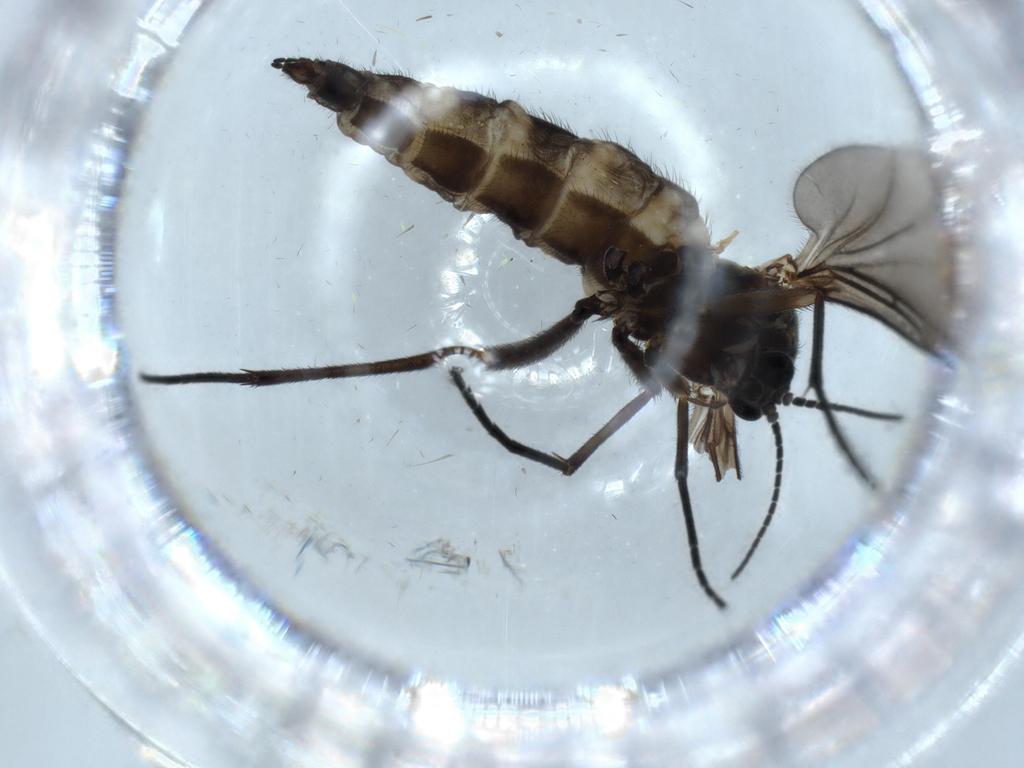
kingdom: Animalia
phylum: Arthropoda
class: Insecta
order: Diptera
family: Sciaridae
